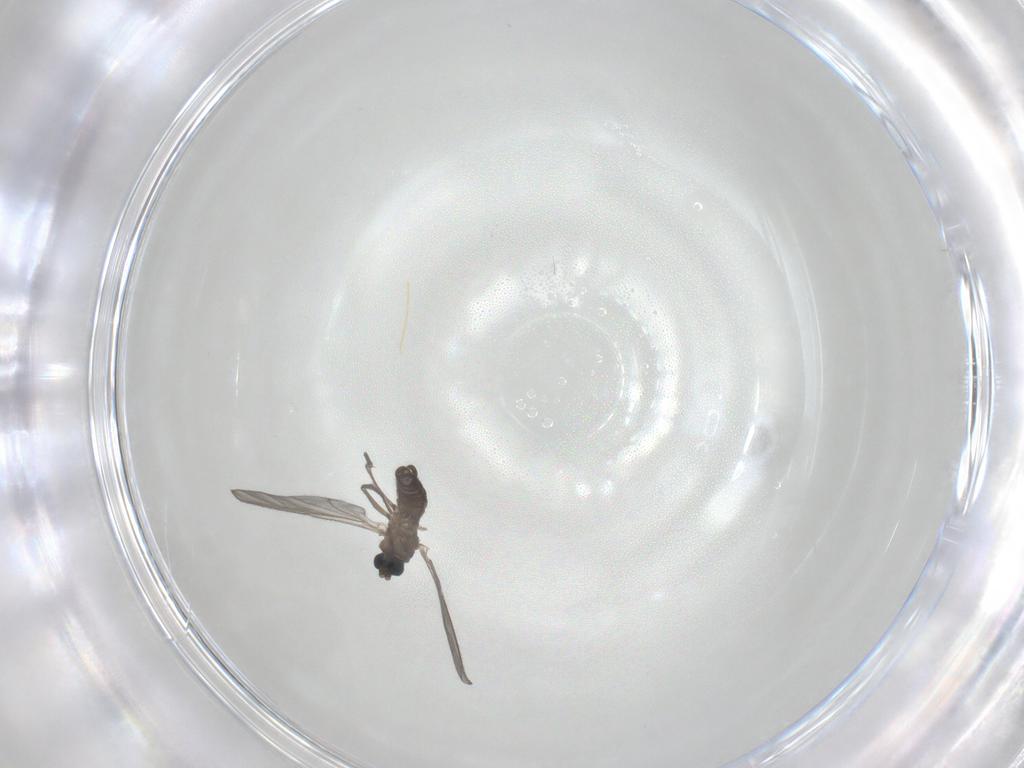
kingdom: Animalia
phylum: Arthropoda
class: Insecta
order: Diptera
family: Sciaridae
